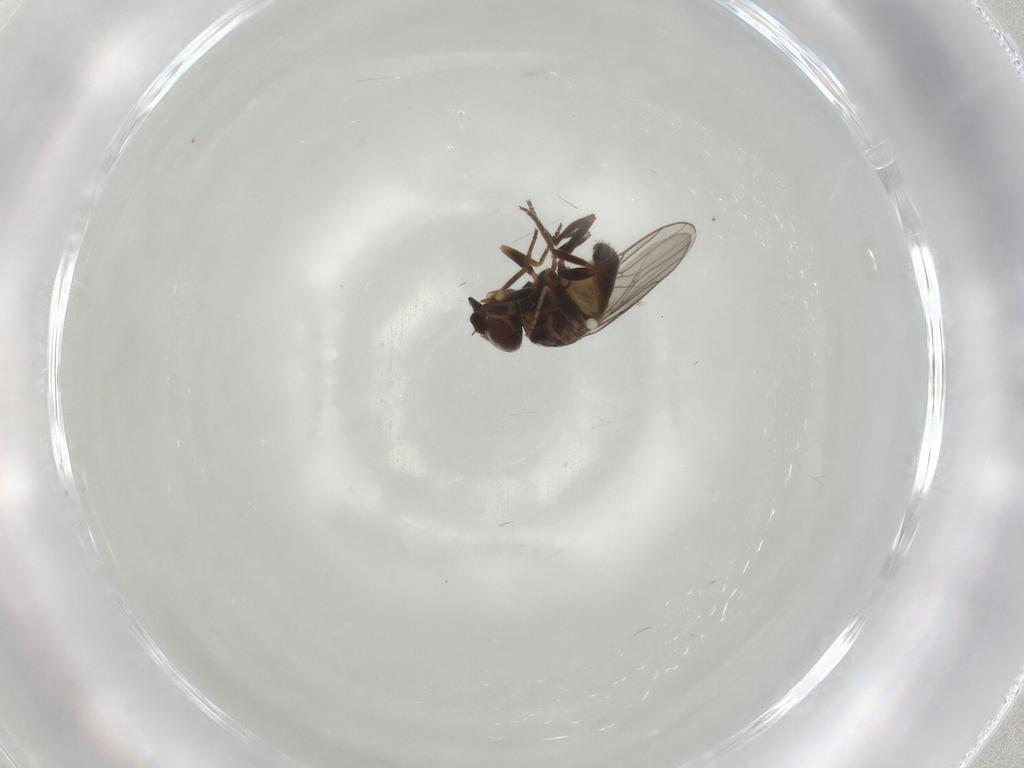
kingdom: Animalia
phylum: Arthropoda
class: Insecta
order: Diptera
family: Chloropidae
